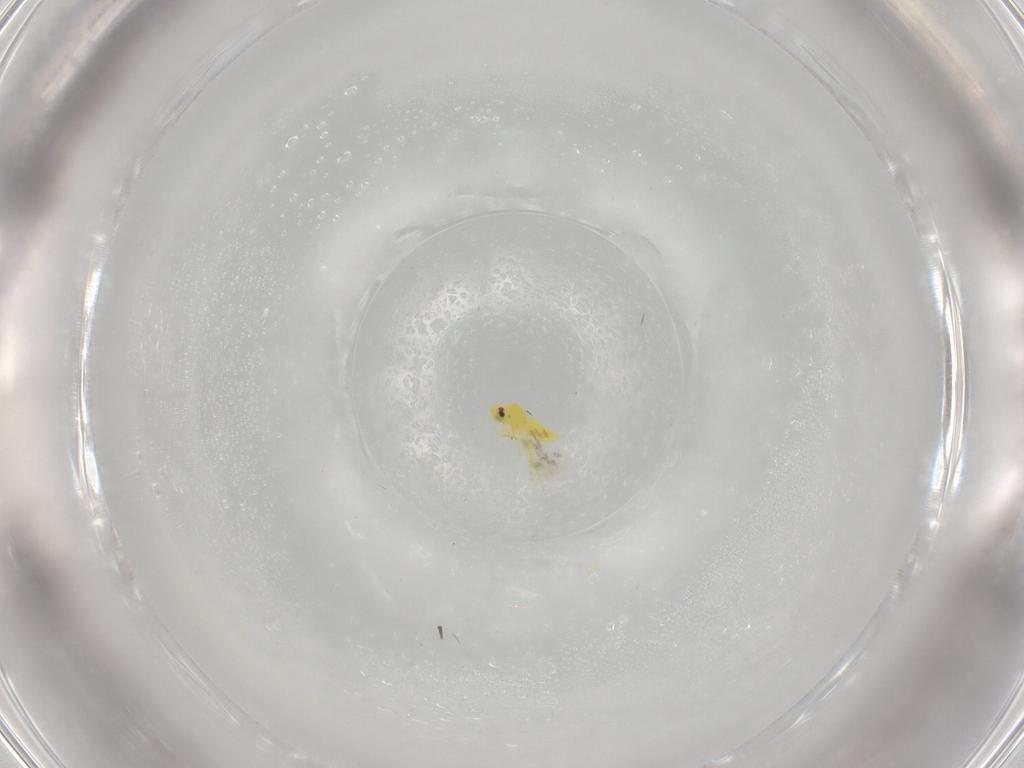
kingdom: Animalia
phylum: Arthropoda
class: Insecta
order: Hemiptera
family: Aleyrodidae
